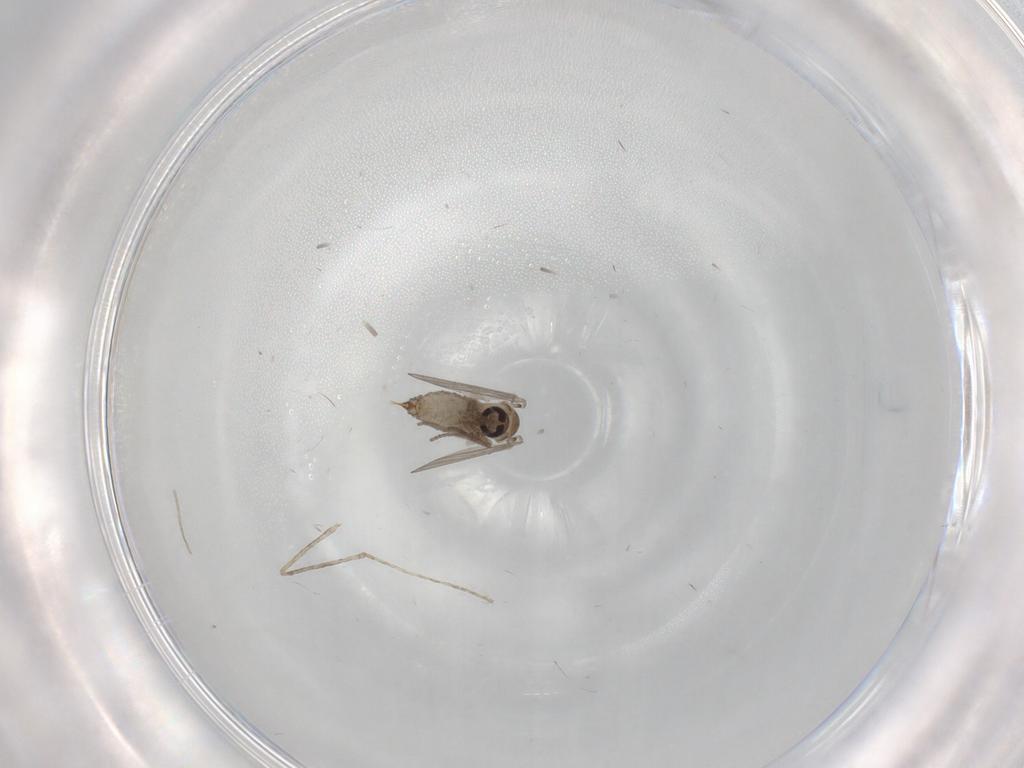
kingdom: Animalia
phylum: Arthropoda
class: Insecta
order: Diptera
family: Psychodidae
